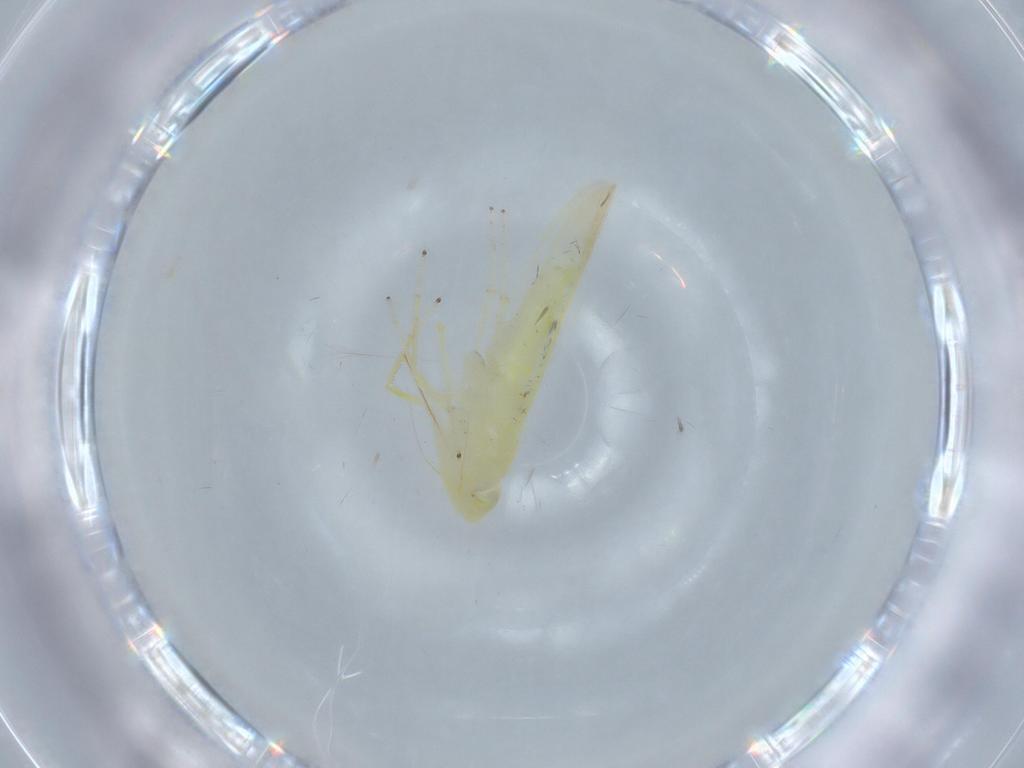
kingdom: Animalia
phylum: Arthropoda
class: Insecta
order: Hemiptera
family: Cicadellidae
